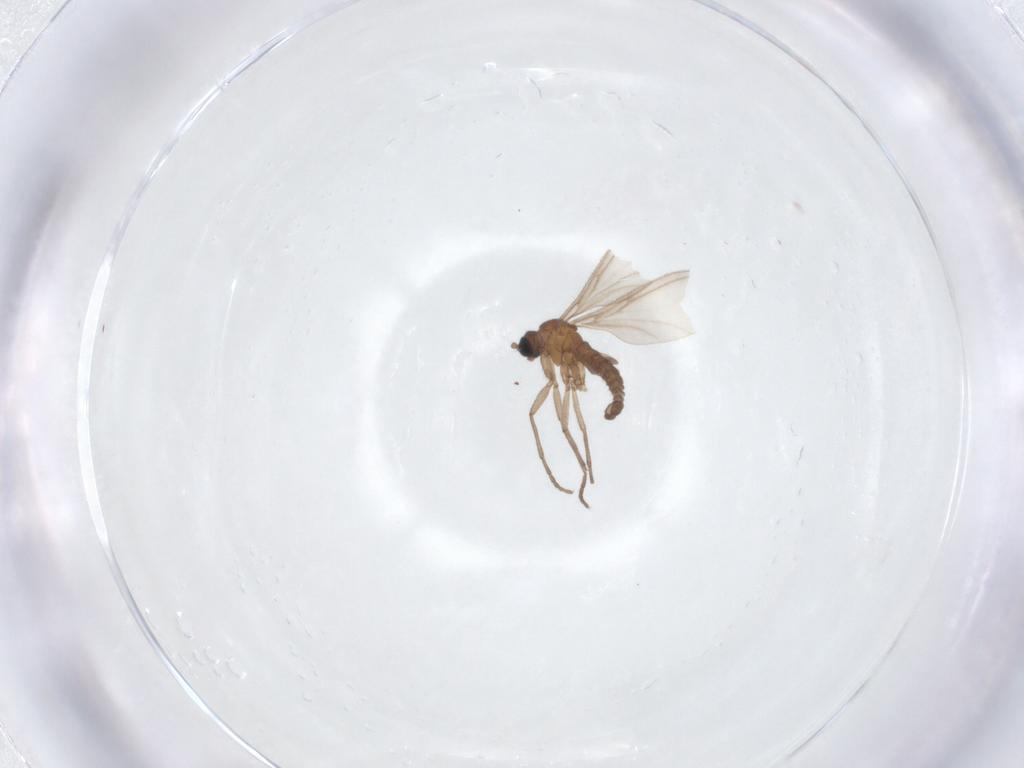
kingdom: Animalia
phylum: Arthropoda
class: Insecta
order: Diptera
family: Sciaridae
